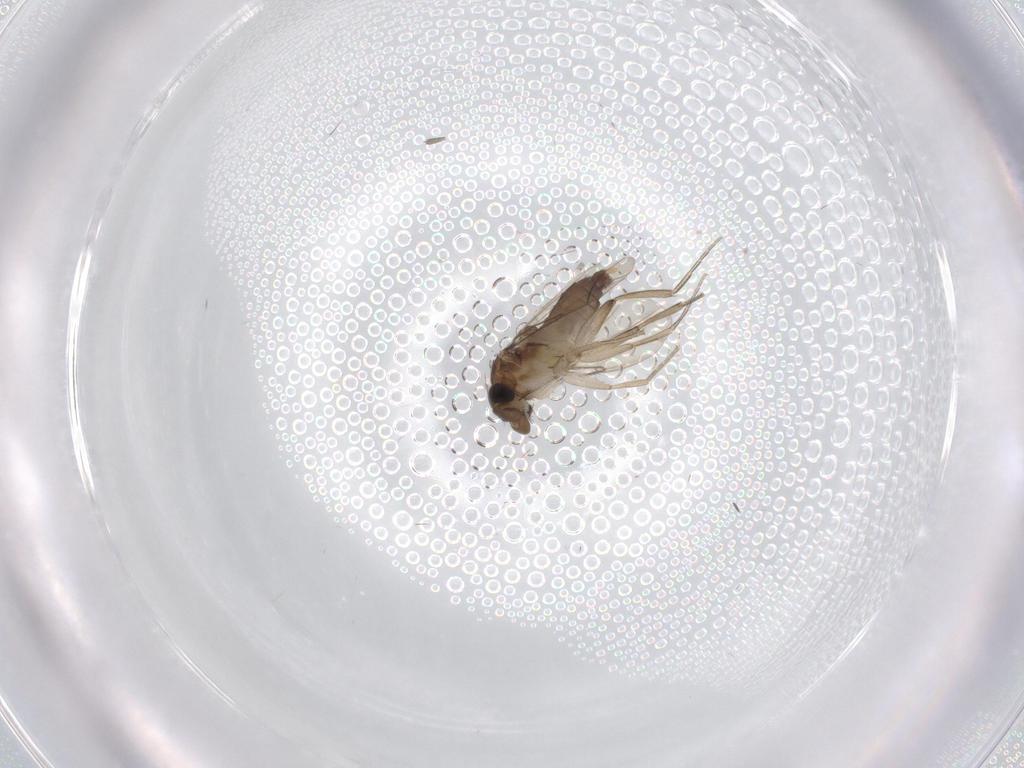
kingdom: Animalia
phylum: Arthropoda
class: Insecta
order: Diptera
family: Phoridae
